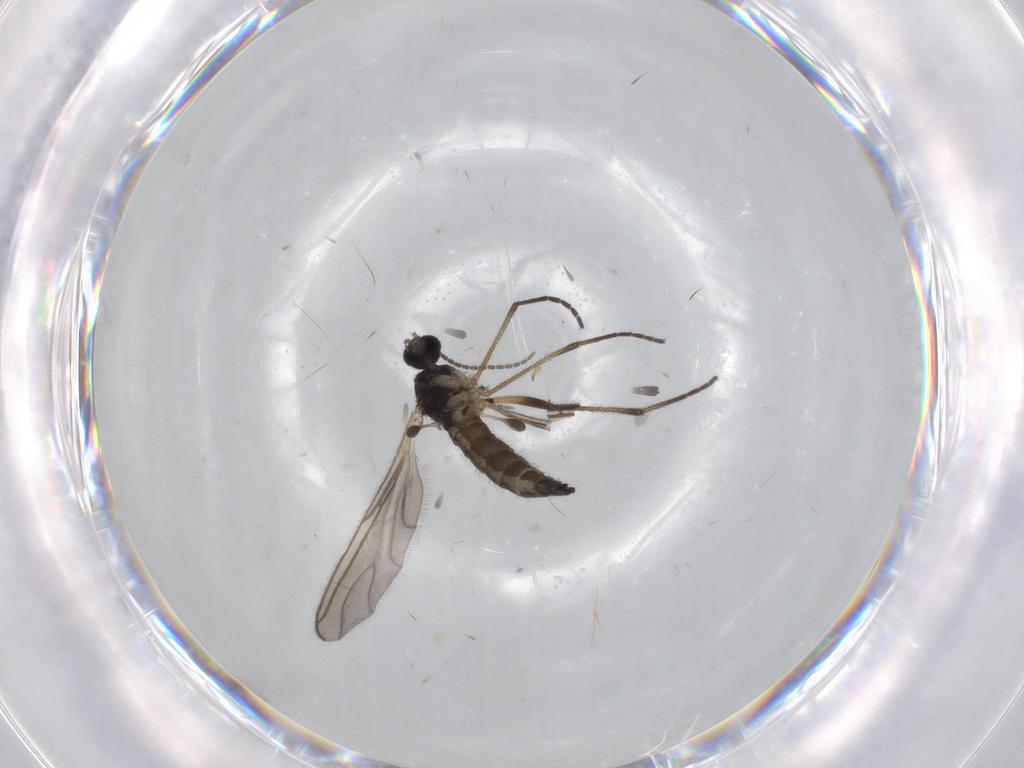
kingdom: Animalia
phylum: Arthropoda
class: Insecta
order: Diptera
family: Sciaridae
